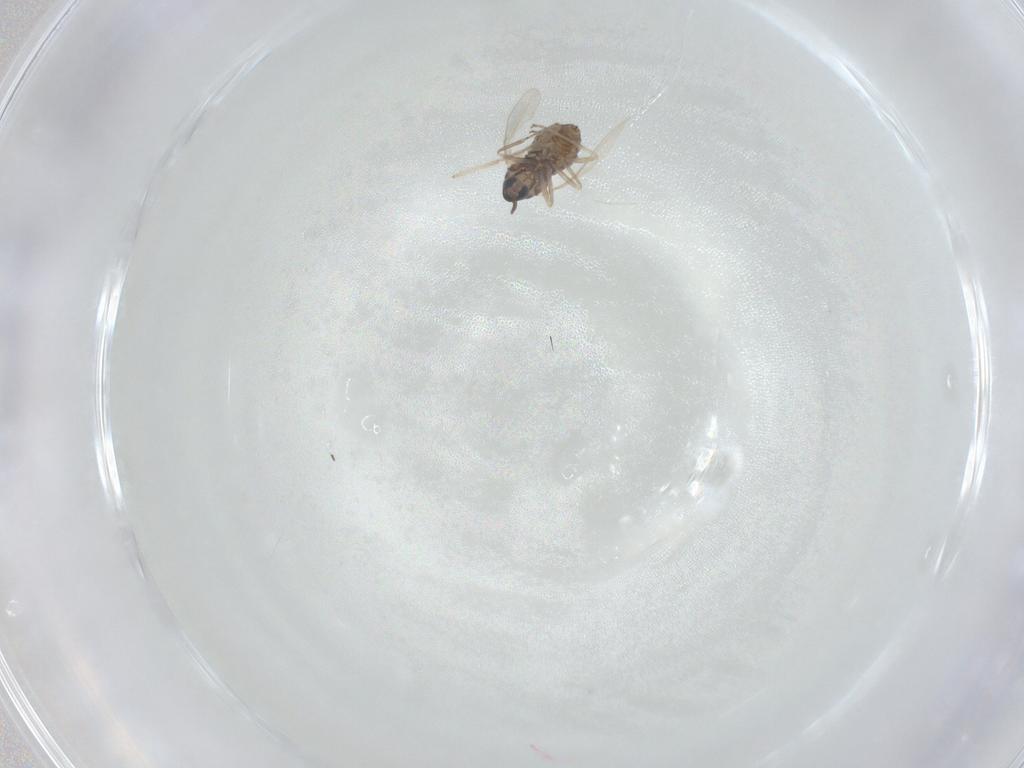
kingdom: Animalia
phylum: Arthropoda
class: Insecta
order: Diptera
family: Cecidomyiidae
